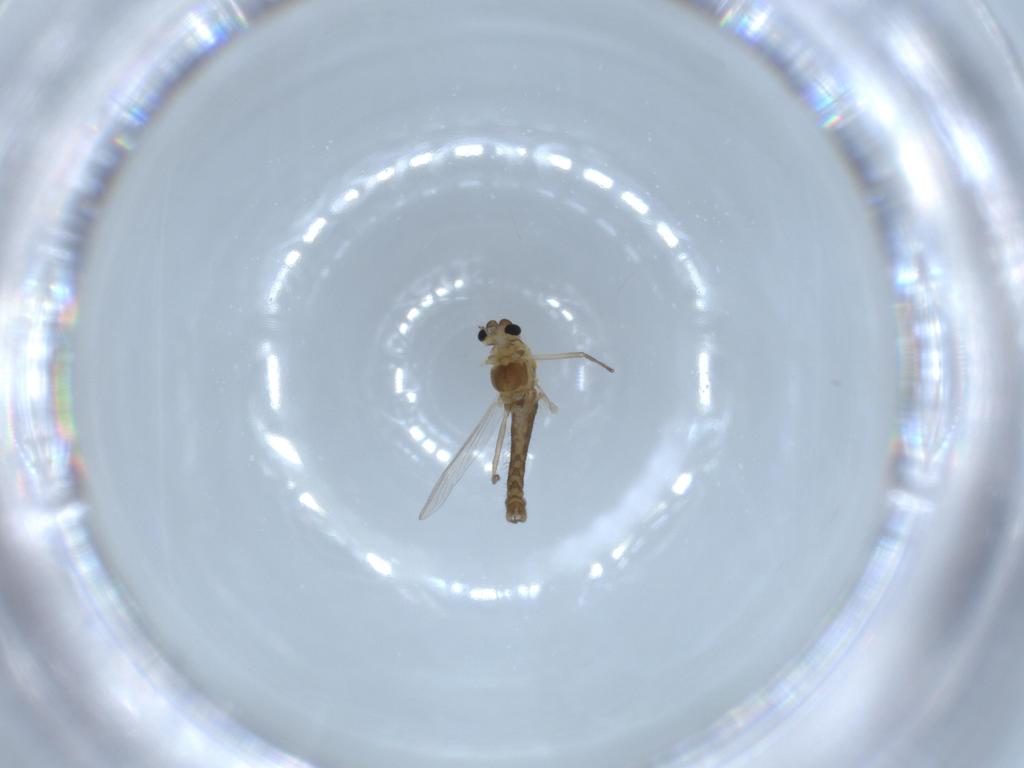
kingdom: Animalia
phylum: Arthropoda
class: Insecta
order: Diptera
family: Chironomidae
